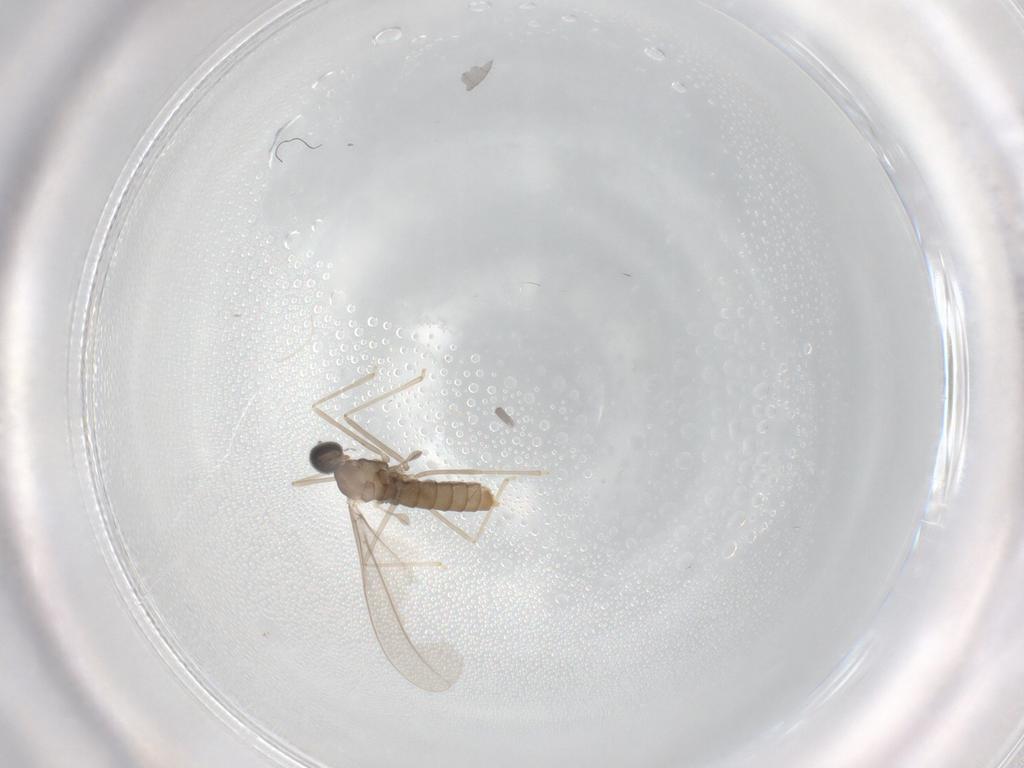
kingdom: Animalia
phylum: Arthropoda
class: Insecta
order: Diptera
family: Cecidomyiidae
